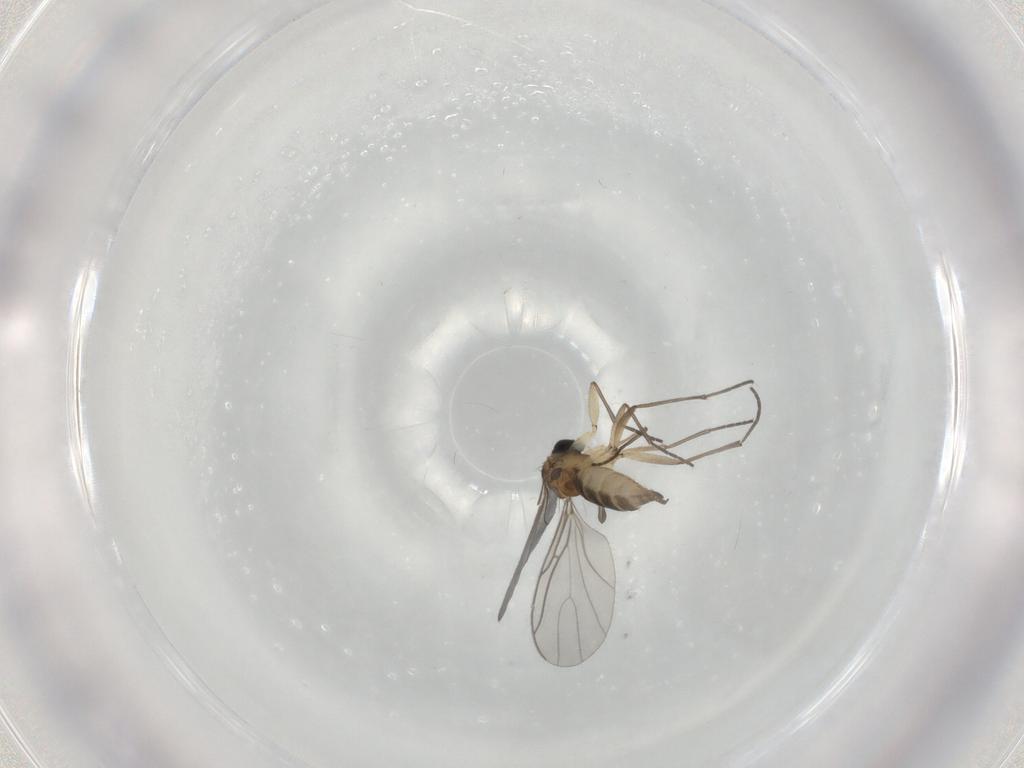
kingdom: Animalia
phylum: Arthropoda
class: Insecta
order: Diptera
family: Sciaridae
